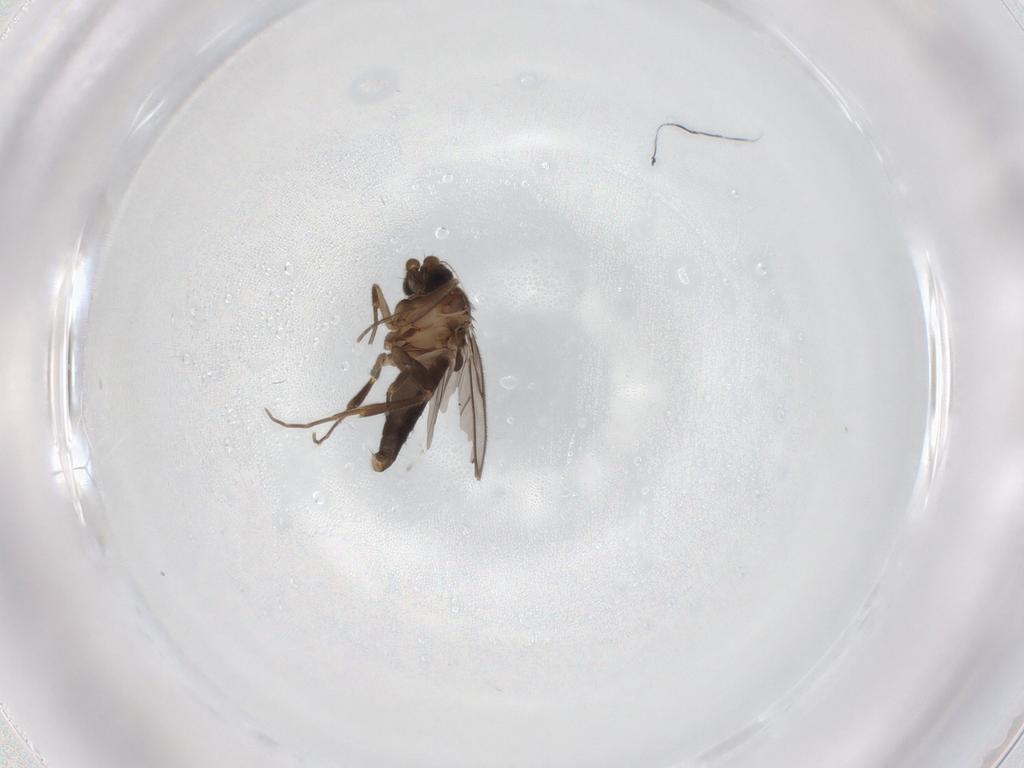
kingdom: Animalia
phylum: Arthropoda
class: Insecta
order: Diptera
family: Phoridae
